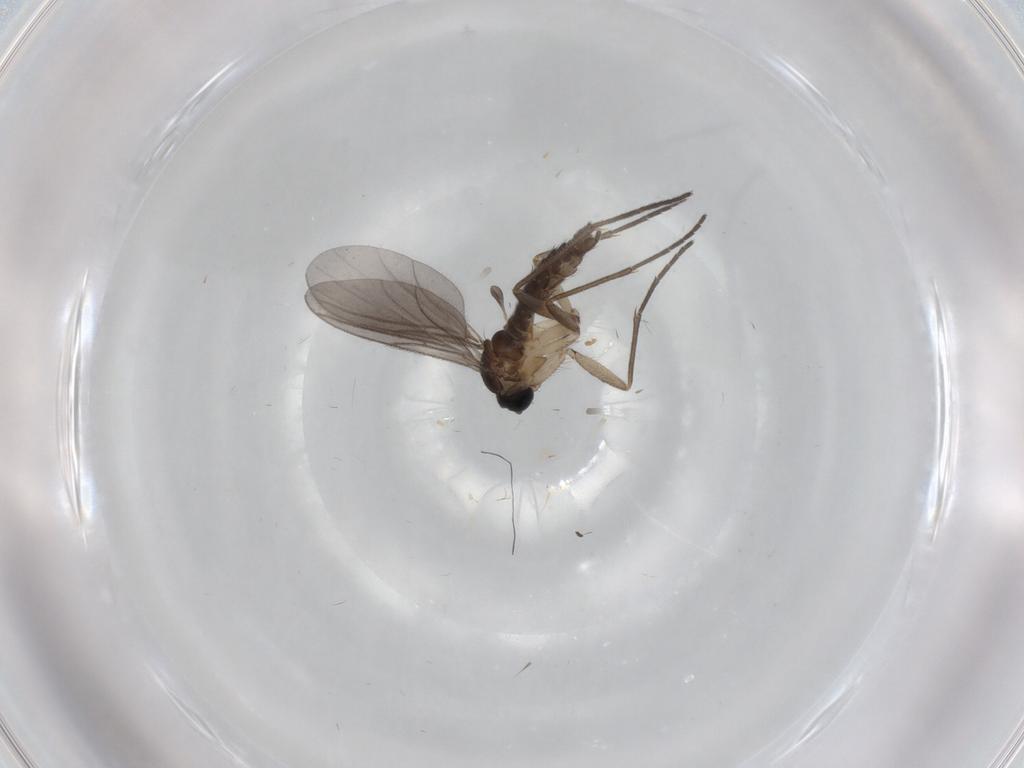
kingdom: Animalia
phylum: Arthropoda
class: Insecta
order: Diptera
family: Sciaridae
